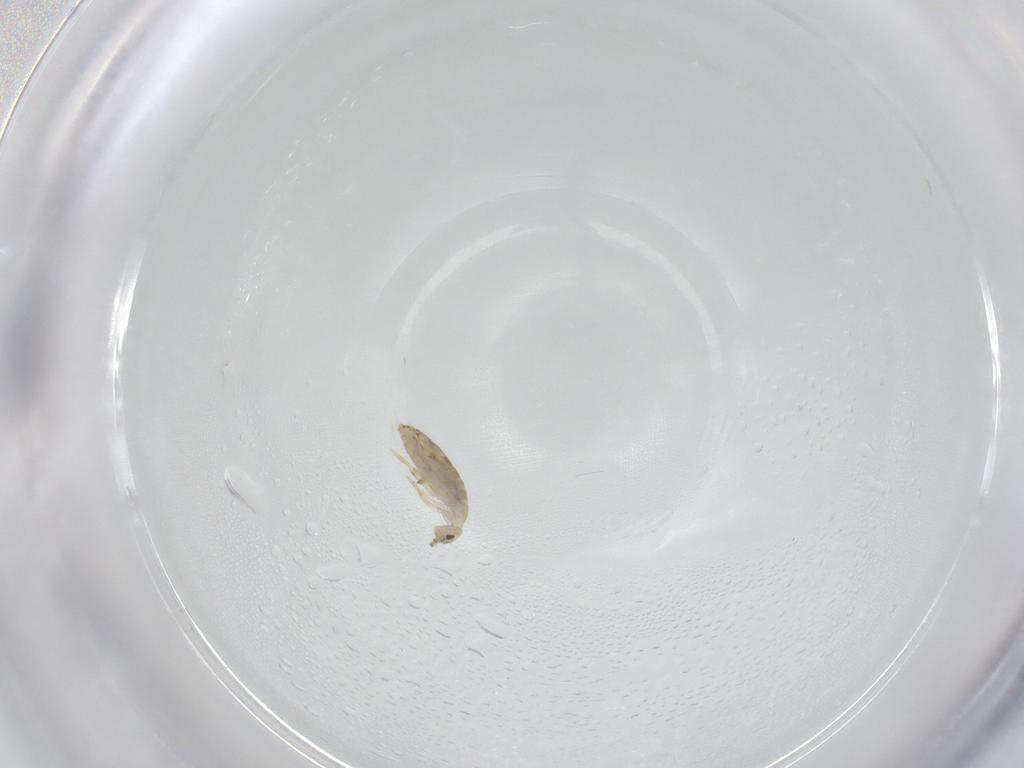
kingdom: Animalia
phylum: Arthropoda
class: Collembola
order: Entomobryomorpha
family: Entomobryidae
